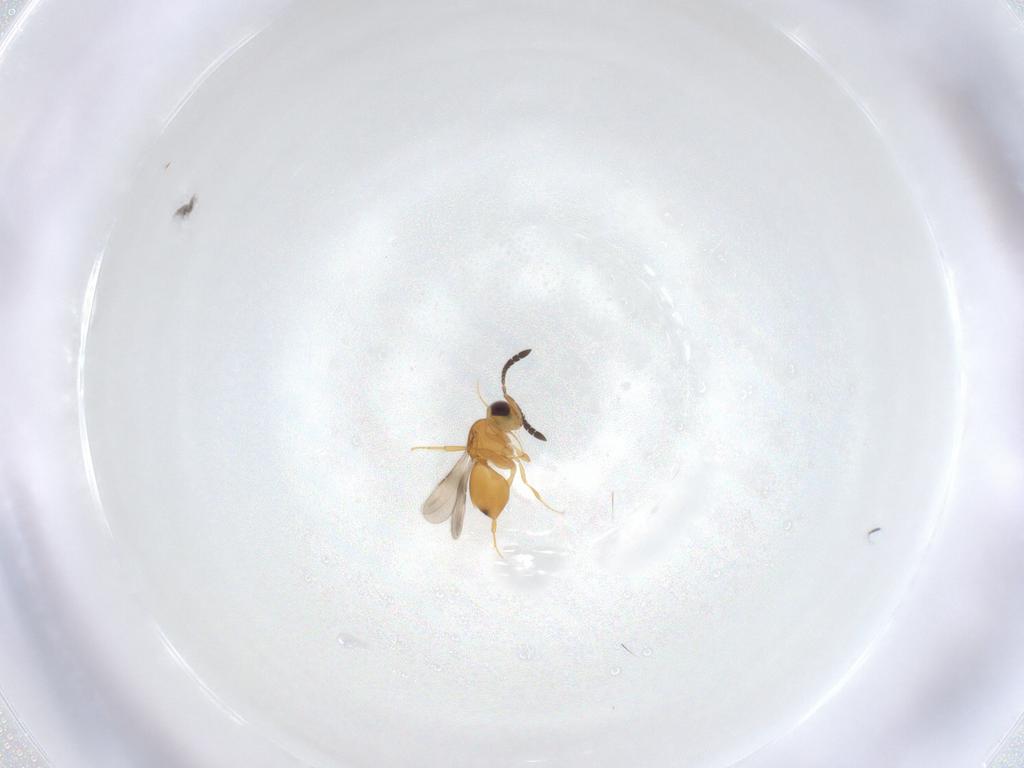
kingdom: Animalia
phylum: Arthropoda
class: Insecta
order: Hemiptera
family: Aphididae
